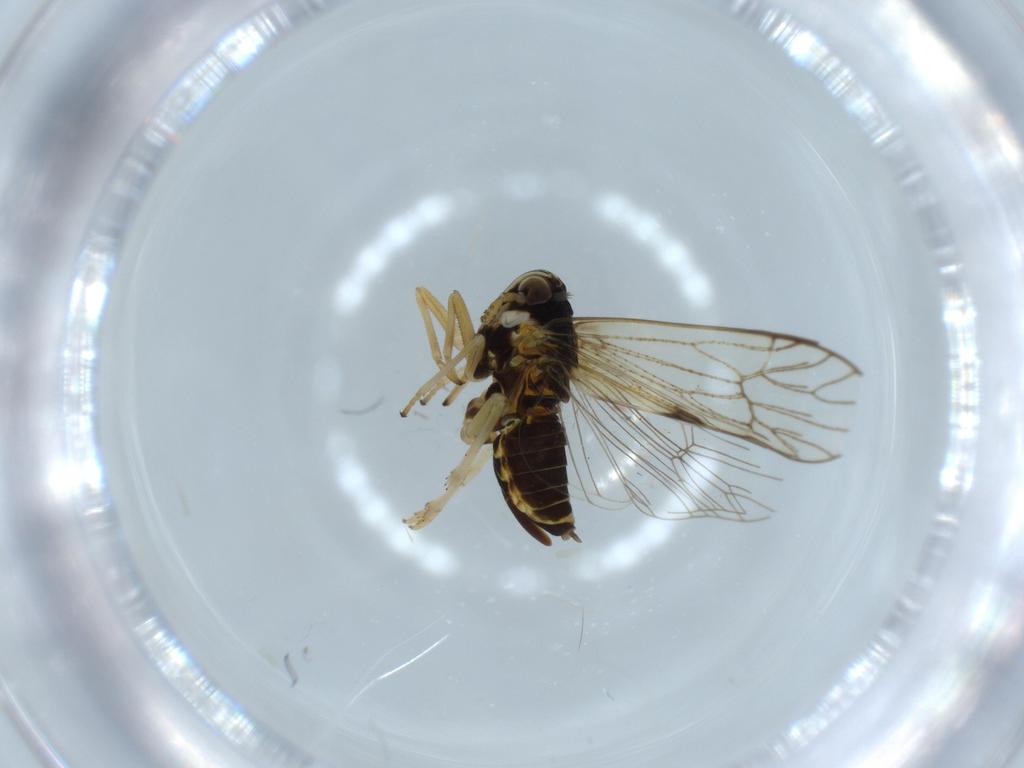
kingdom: Animalia
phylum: Arthropoda
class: Insecta
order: Hemiptera
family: Pyrrhocoridae
